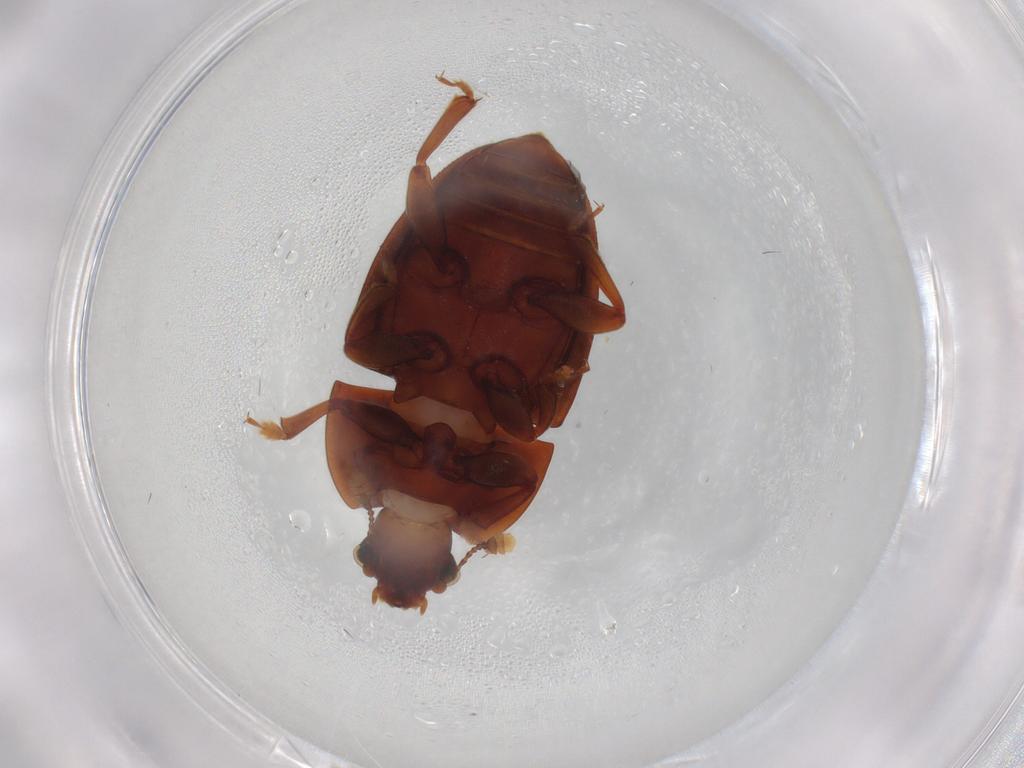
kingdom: Animalia
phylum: Arthropoda
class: Insecta
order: Coleoptera
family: Nitidulidae
